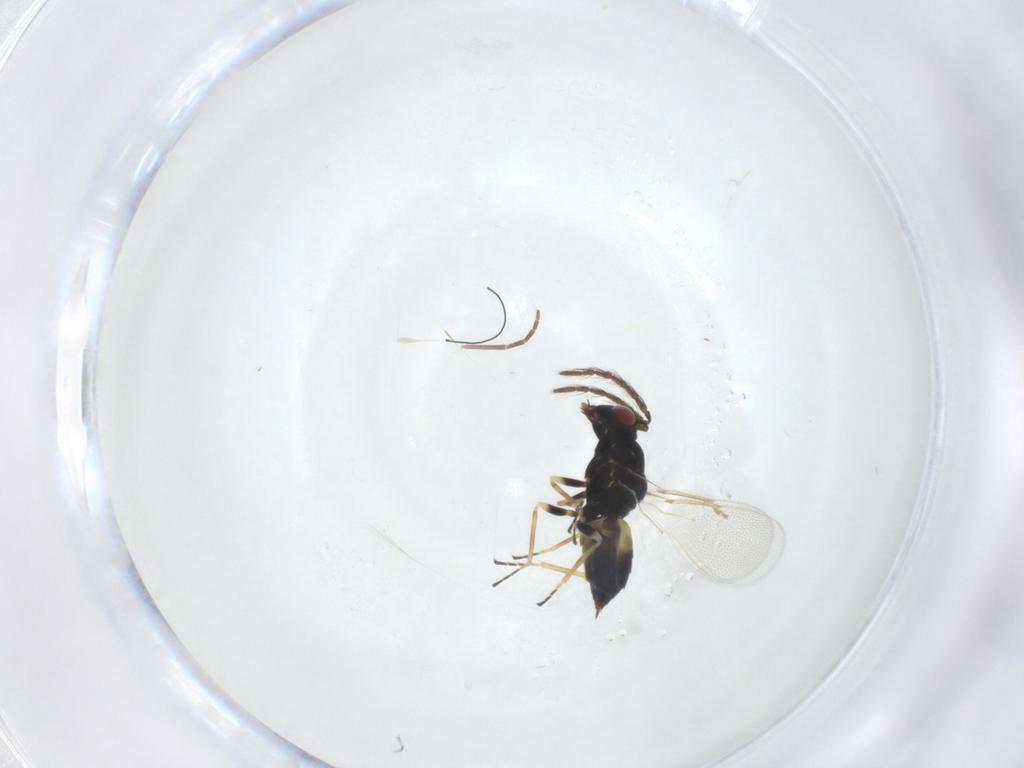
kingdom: Animalia
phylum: Arthropoda
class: Insecta
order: Hymenoptera
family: Eulophidae
